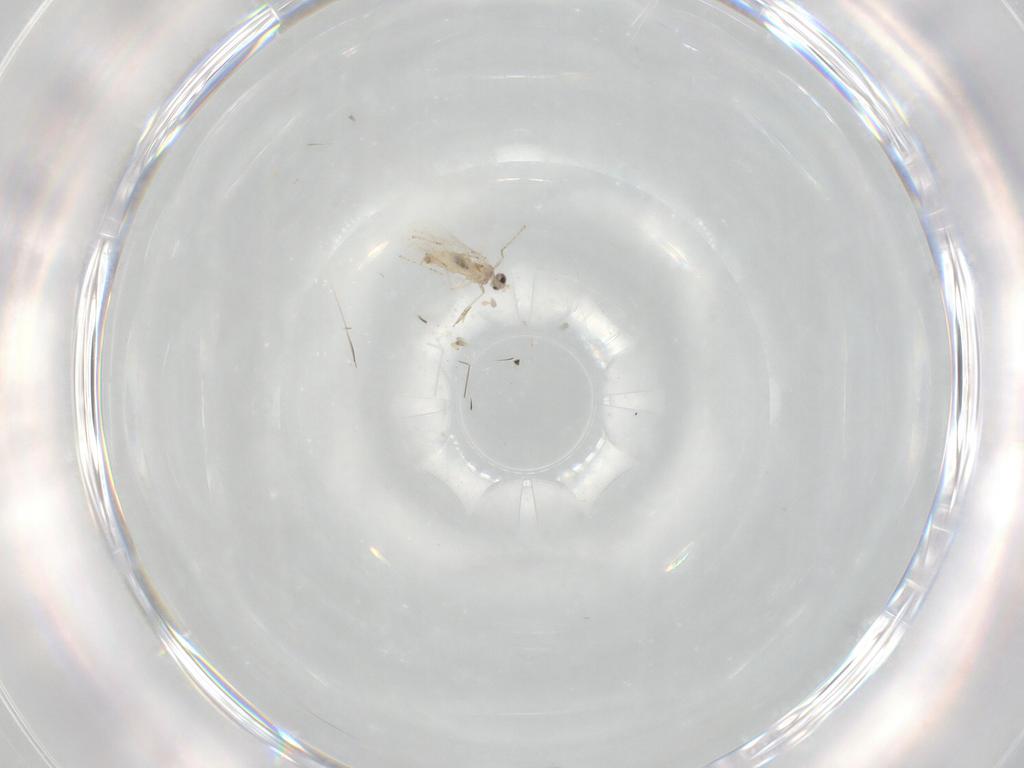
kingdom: Animalia
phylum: Arthropoda
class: Insecta
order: Diptera
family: Cecidomyiidae
